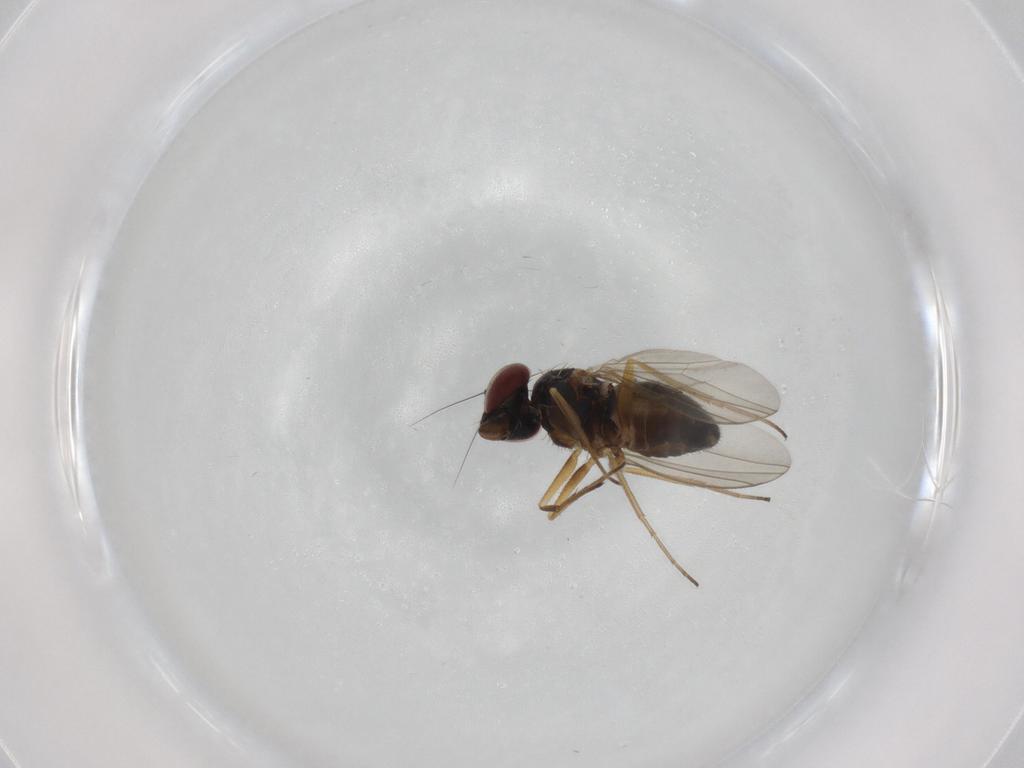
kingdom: Animalia
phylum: Arthropoda
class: Insecta
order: Diptera
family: Dolichopodidae
